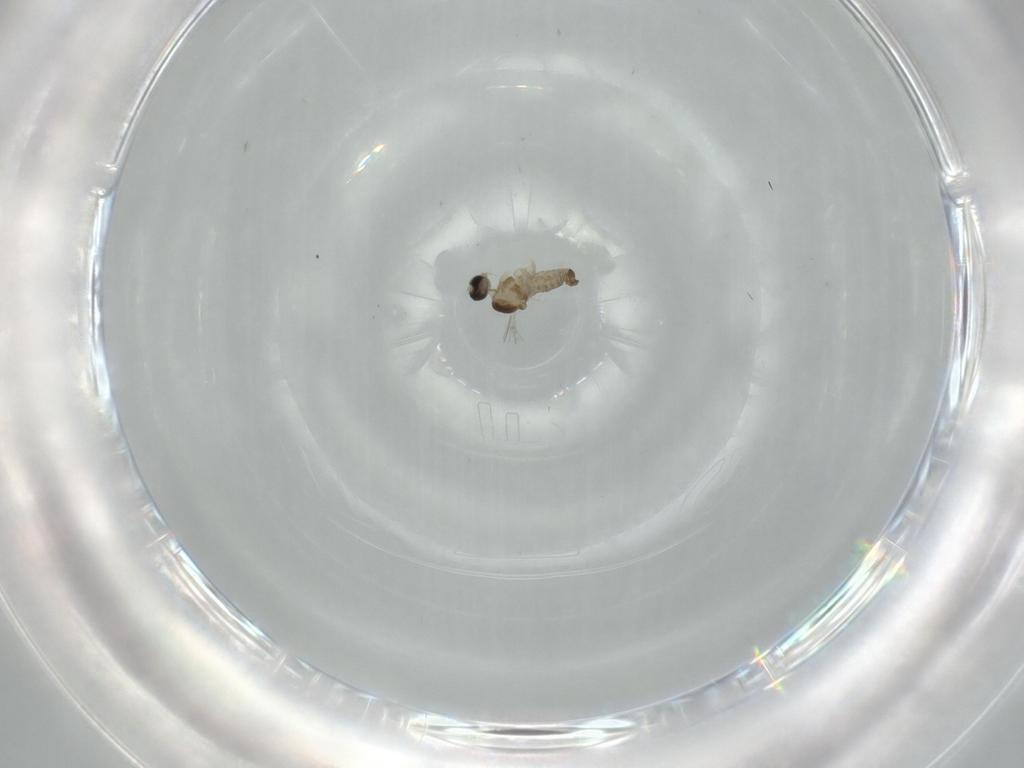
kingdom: Animalia
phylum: Arthropoda
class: Insecta
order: Diptera
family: Cecidomyiidae
